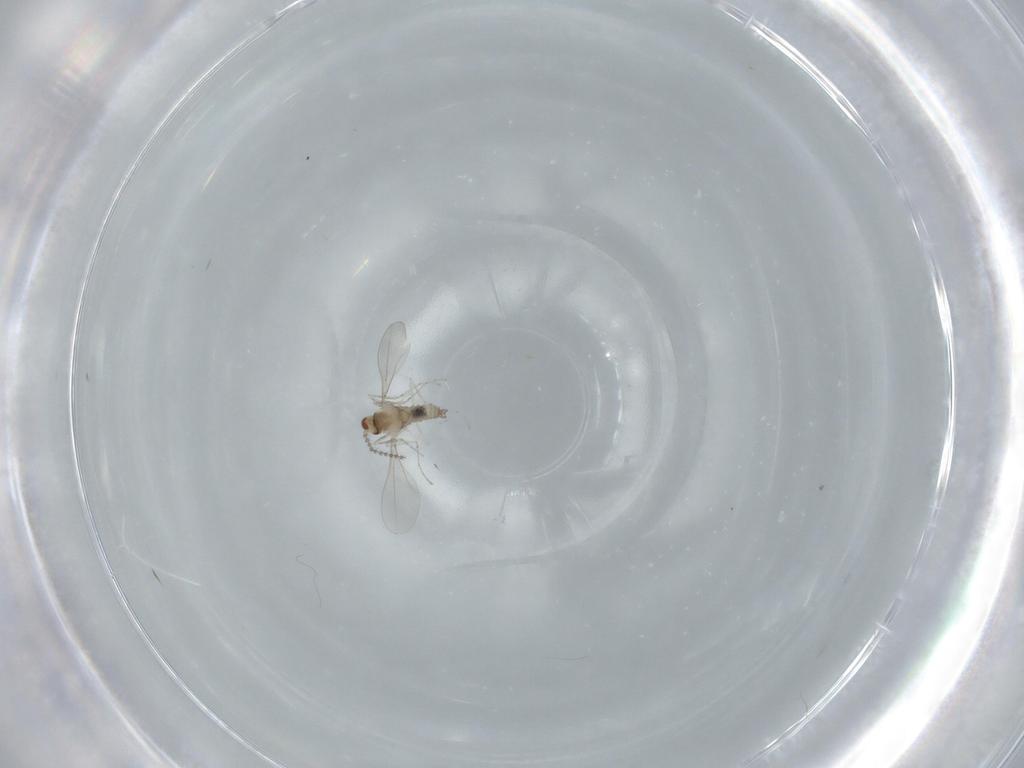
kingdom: Animalia
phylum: Arthropoda
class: Insecta
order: Diptera
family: Cecidomyiidae
